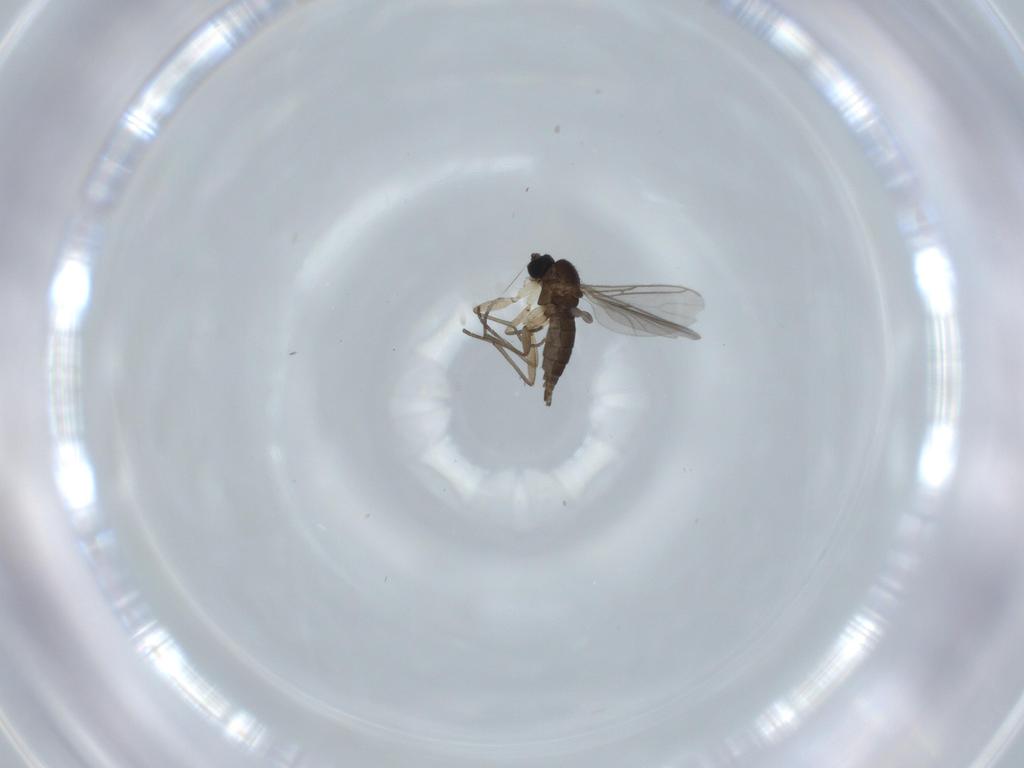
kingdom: Animalia
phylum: Arthropoda
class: Insecta
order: Diptera
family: Sciaridae
